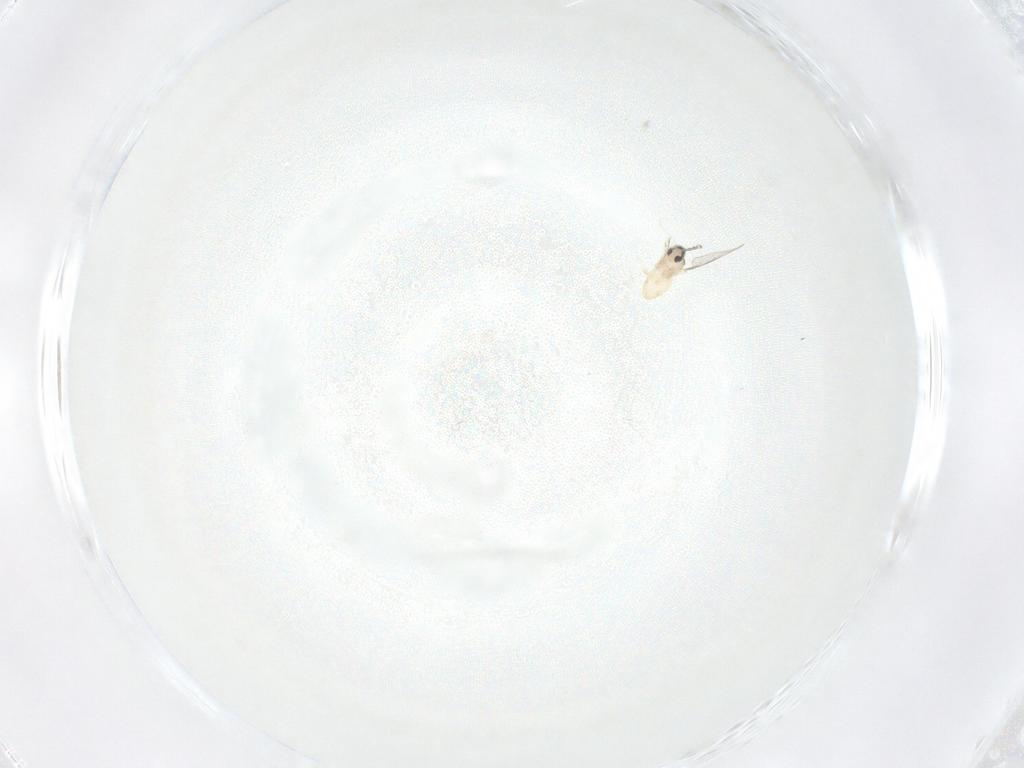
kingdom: Animalia
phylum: Arthropoda
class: Insecta
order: Diptera
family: Cecidomyiidae
